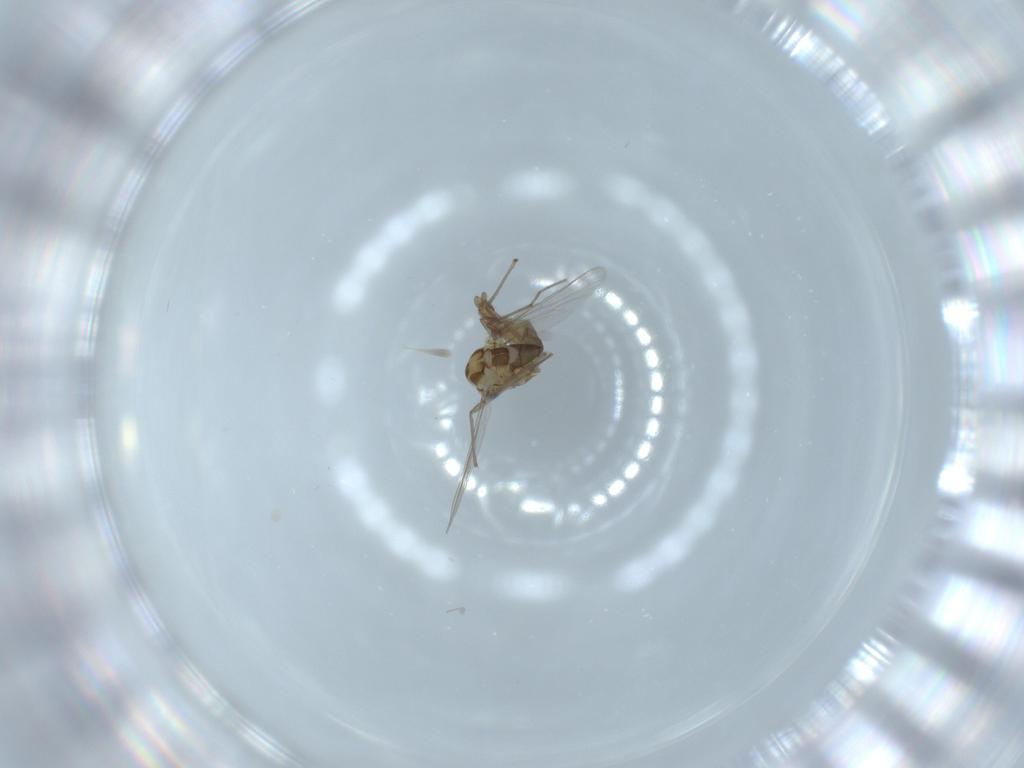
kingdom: Animalia
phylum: Arthropoda
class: Insecta
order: Diptera
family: Chironomidae
